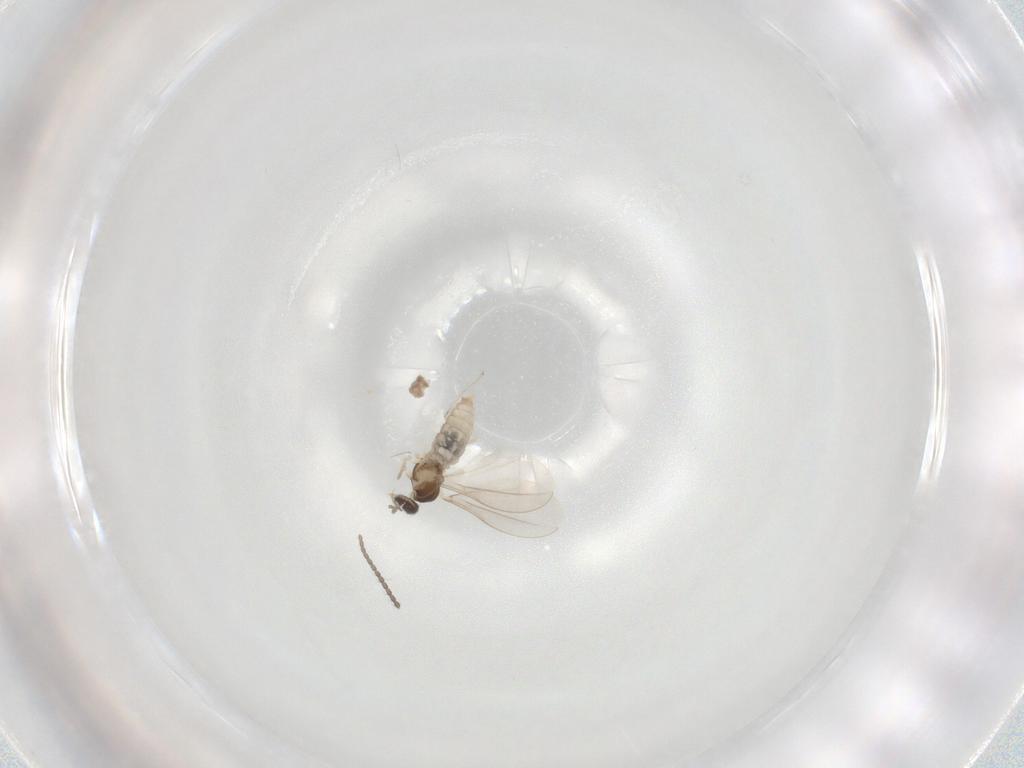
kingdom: Animalia
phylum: Arthropoda
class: Insecta
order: Diptera
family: Cecidomyiidae
